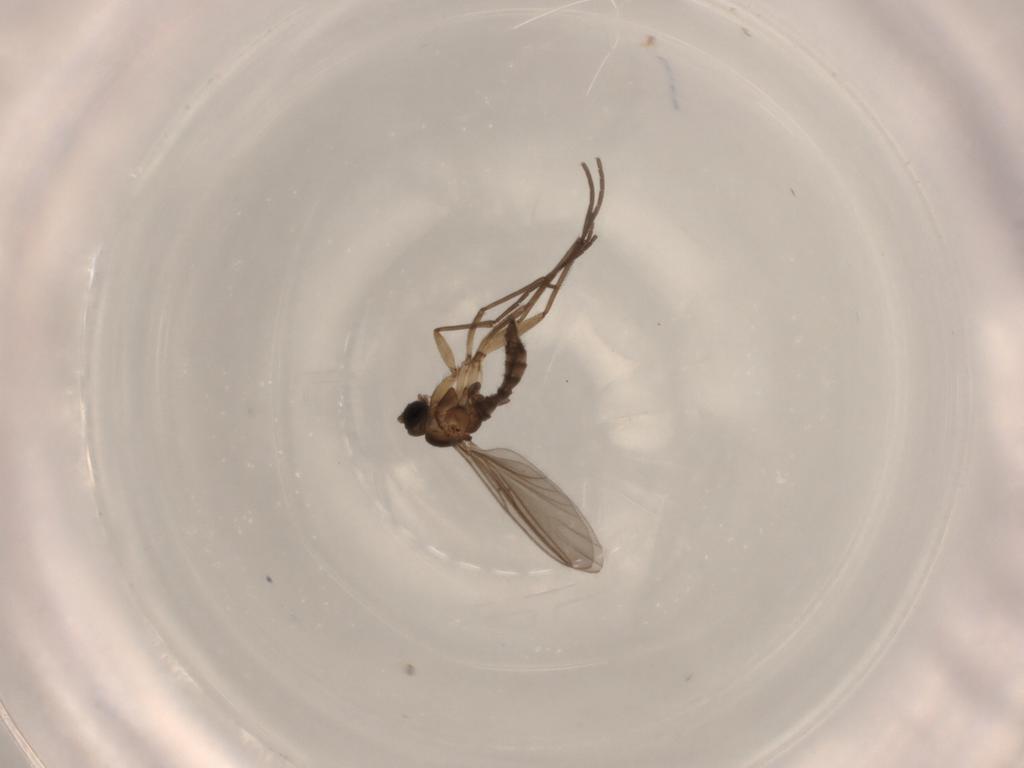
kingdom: Animalia
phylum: Arthropoda
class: Insecta
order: Diptera
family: Sciaridae
